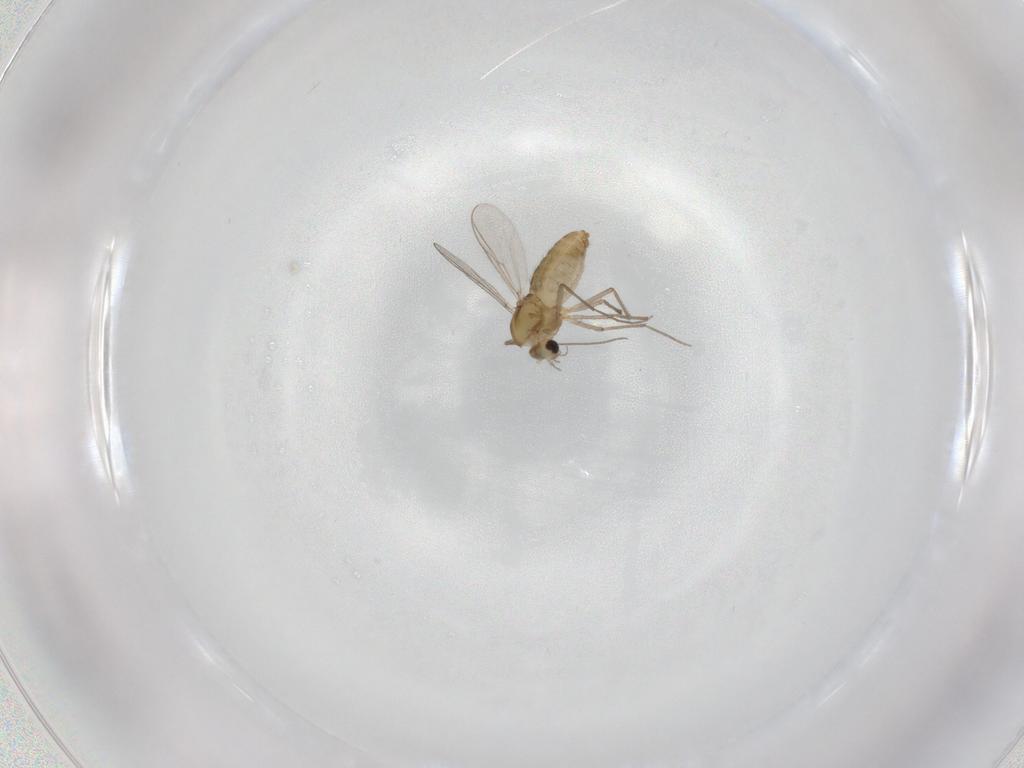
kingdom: Animalia
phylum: Arthropoda
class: Insecta
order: Diptera
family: Chironomidae
